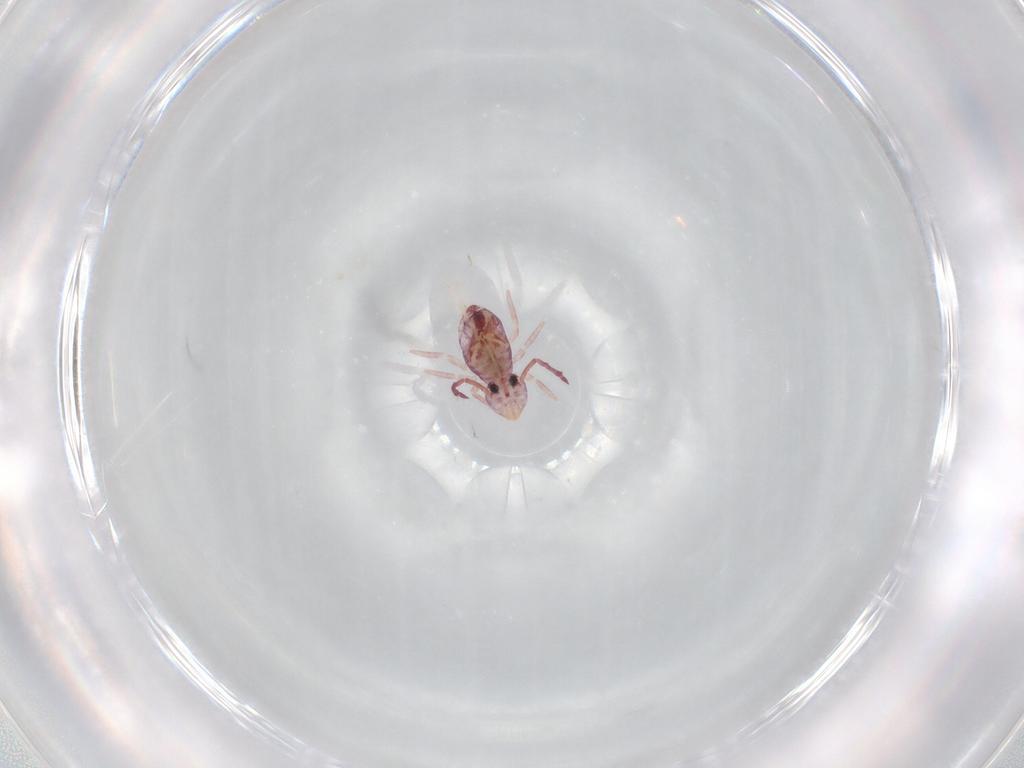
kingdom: Animalia
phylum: Arthropoda
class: Collembola
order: Symphypleona
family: Dicyrtomidae
